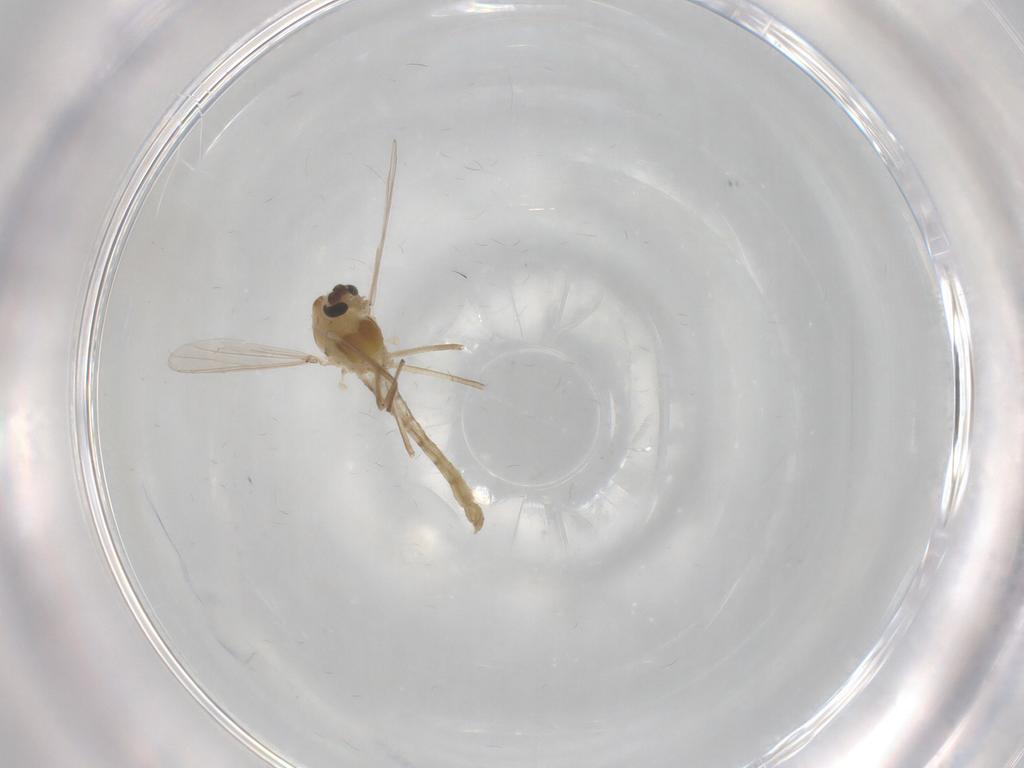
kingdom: Animalia
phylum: Arthropoda
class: Insecta
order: Diptera
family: Chironomidae
